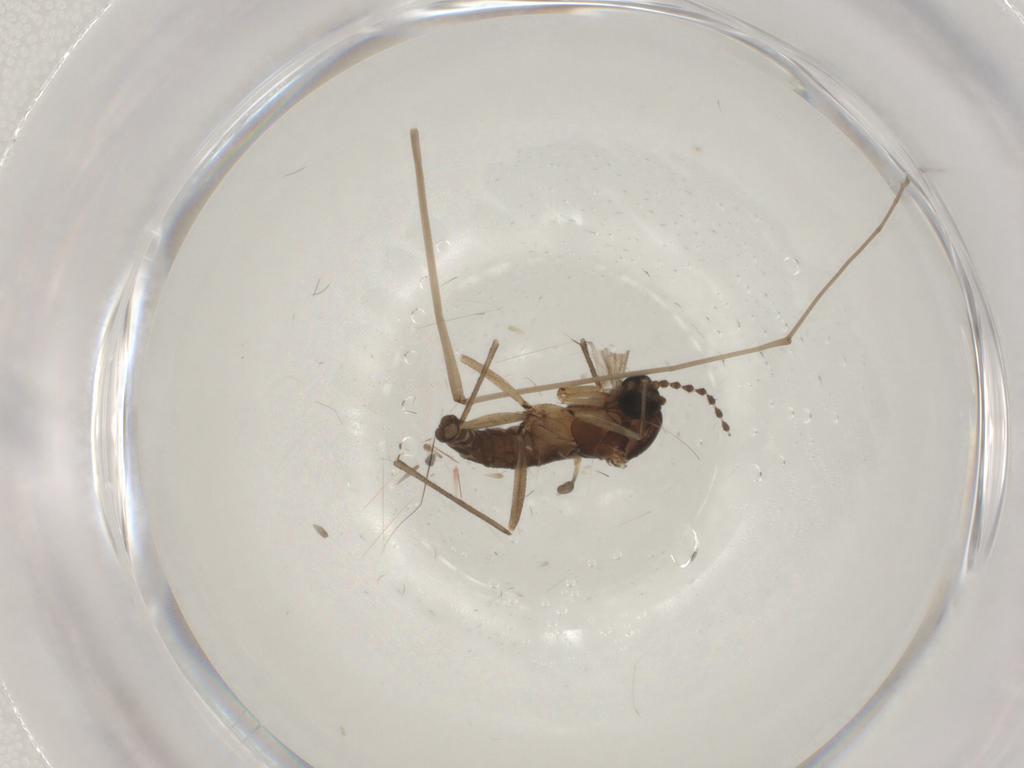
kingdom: Animalia
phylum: Arthropoda
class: Insecta
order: Diptera
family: Sciaridae
